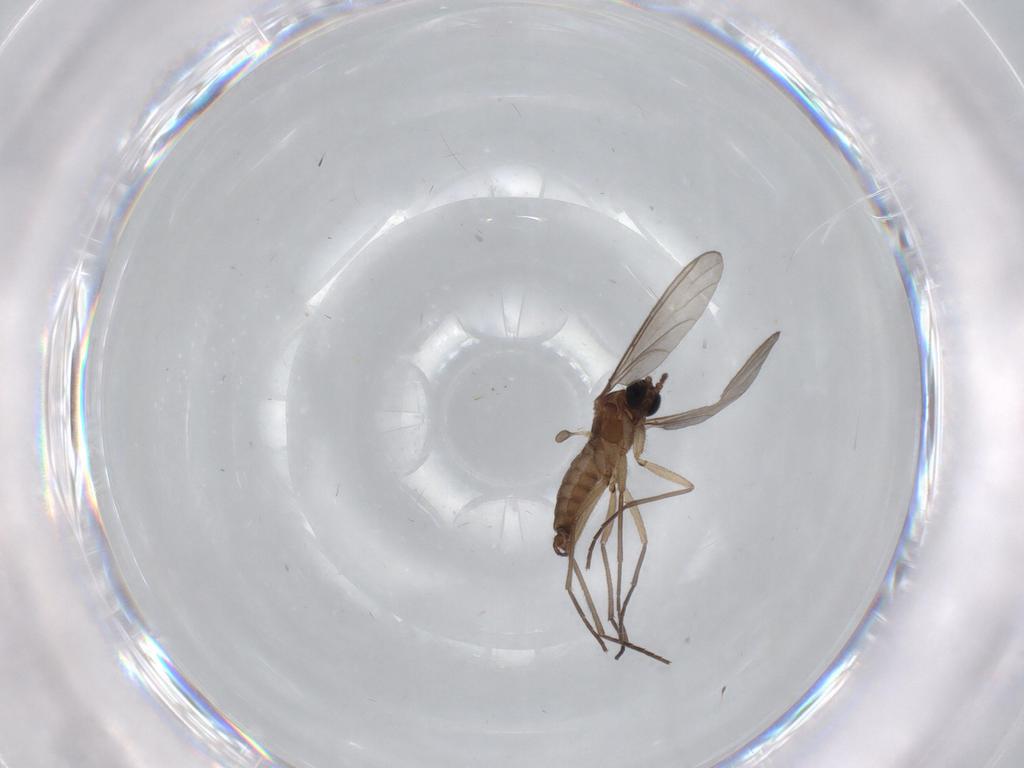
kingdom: Animalia
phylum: Arthropoda
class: Insecta
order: Diptera
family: Sciaridae
